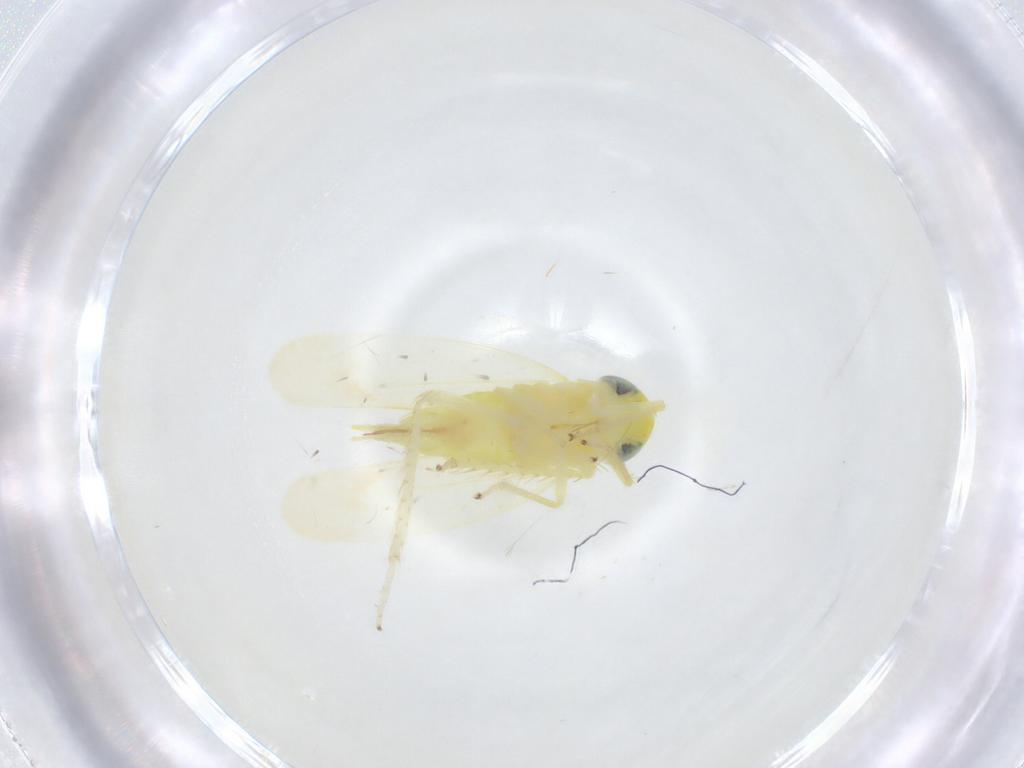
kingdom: Animalia
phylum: Arthropoda
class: Insecta
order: Hemiptera
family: Cicadellidae
